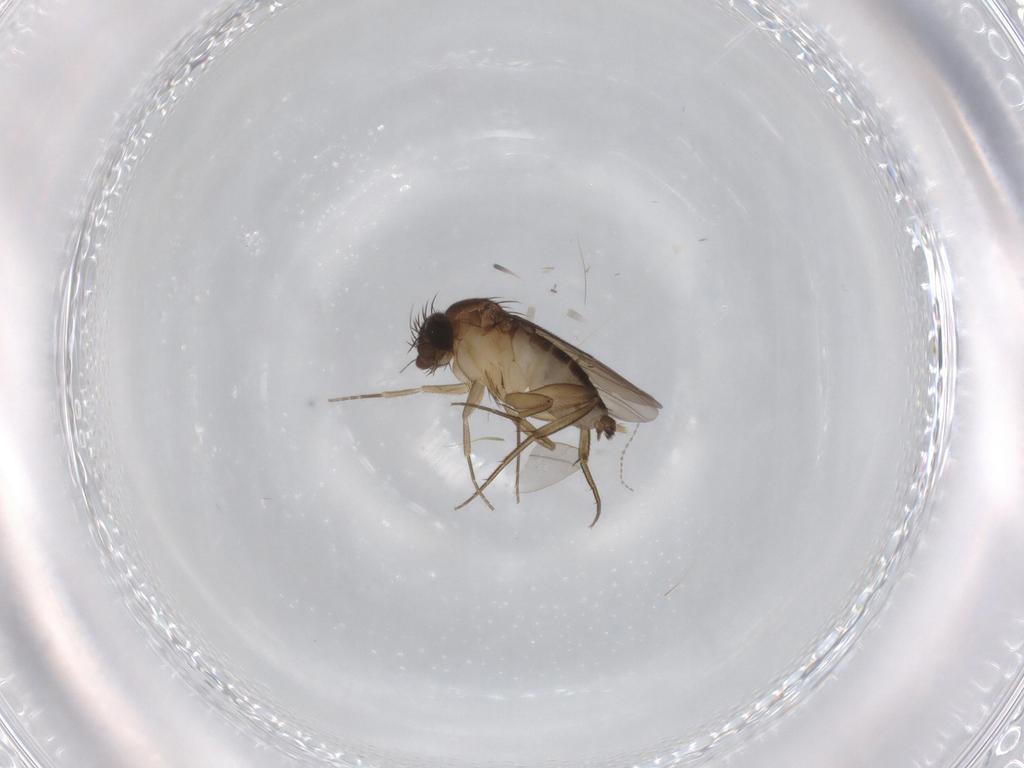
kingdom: Animalia
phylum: Arthropoda
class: Insecta
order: Diptera
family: Phoridae
